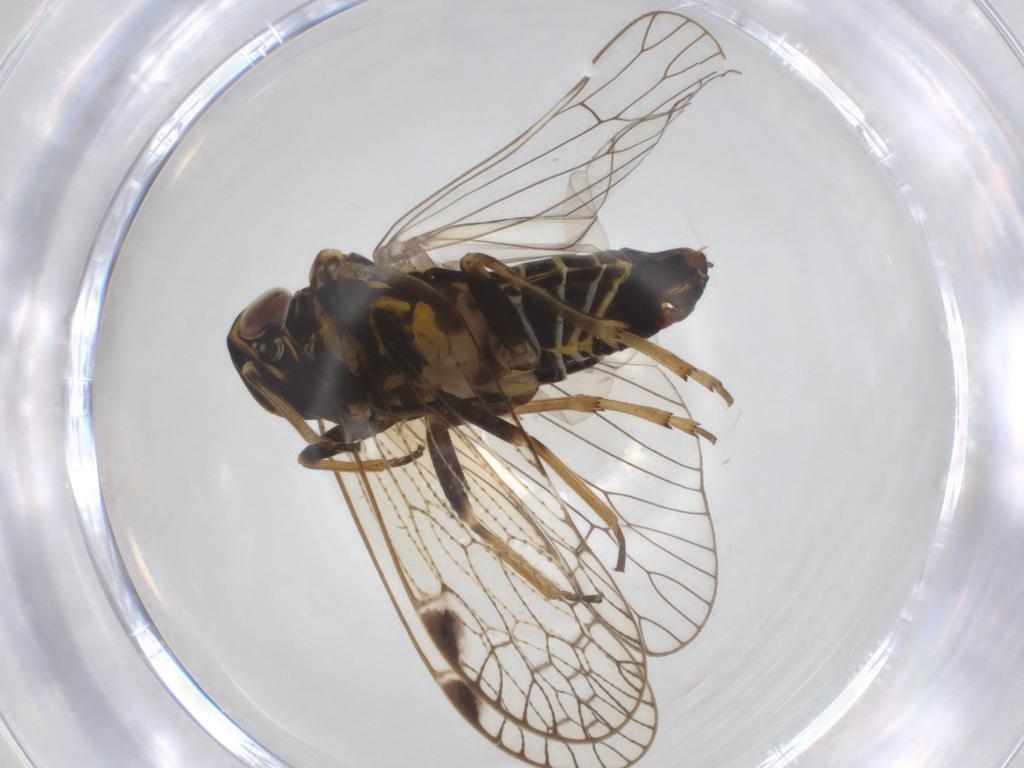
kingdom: Animalia
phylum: Arthropoda
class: Insecta
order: Hemiptera
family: Cixiidae
